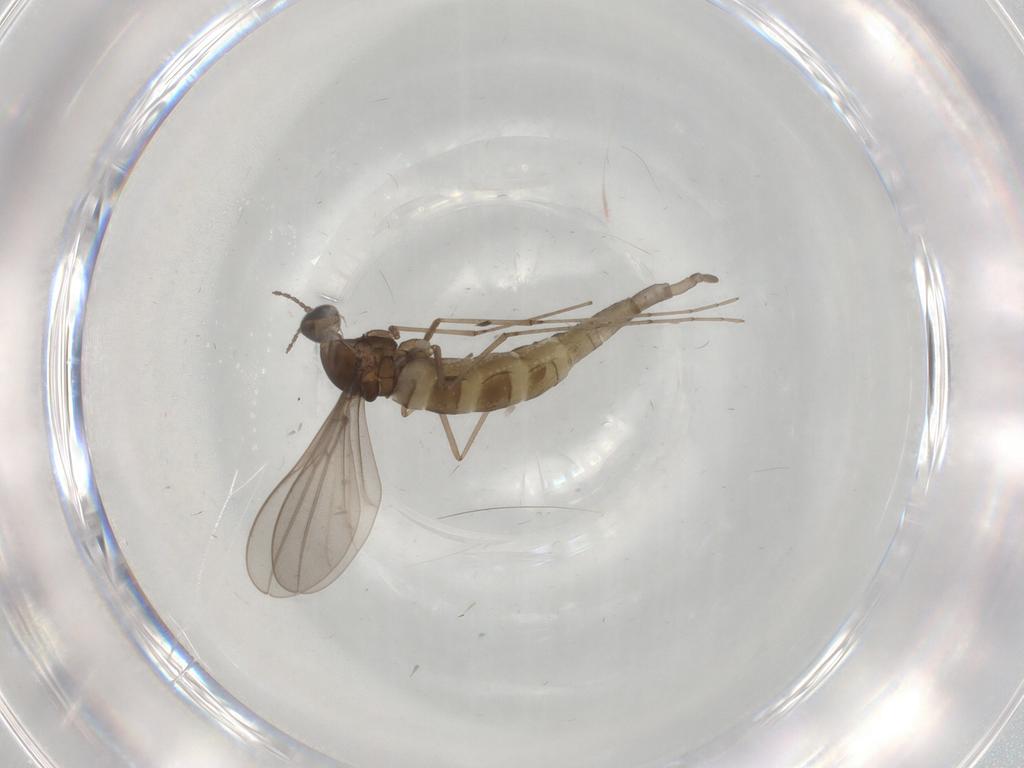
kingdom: Animalia
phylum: Arthropoda
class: Insecta
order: Diptera
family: Hybotidae
